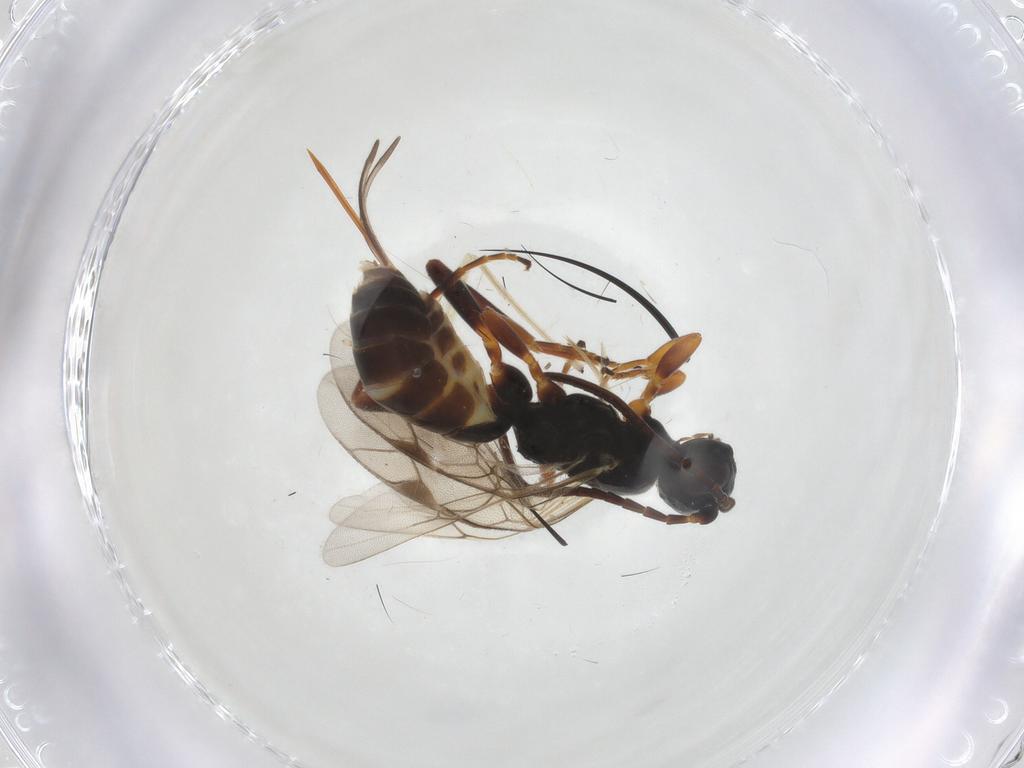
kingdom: Animalia
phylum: Arthropoda
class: Insecta
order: Hymenoptera
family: Ichneumonidae
